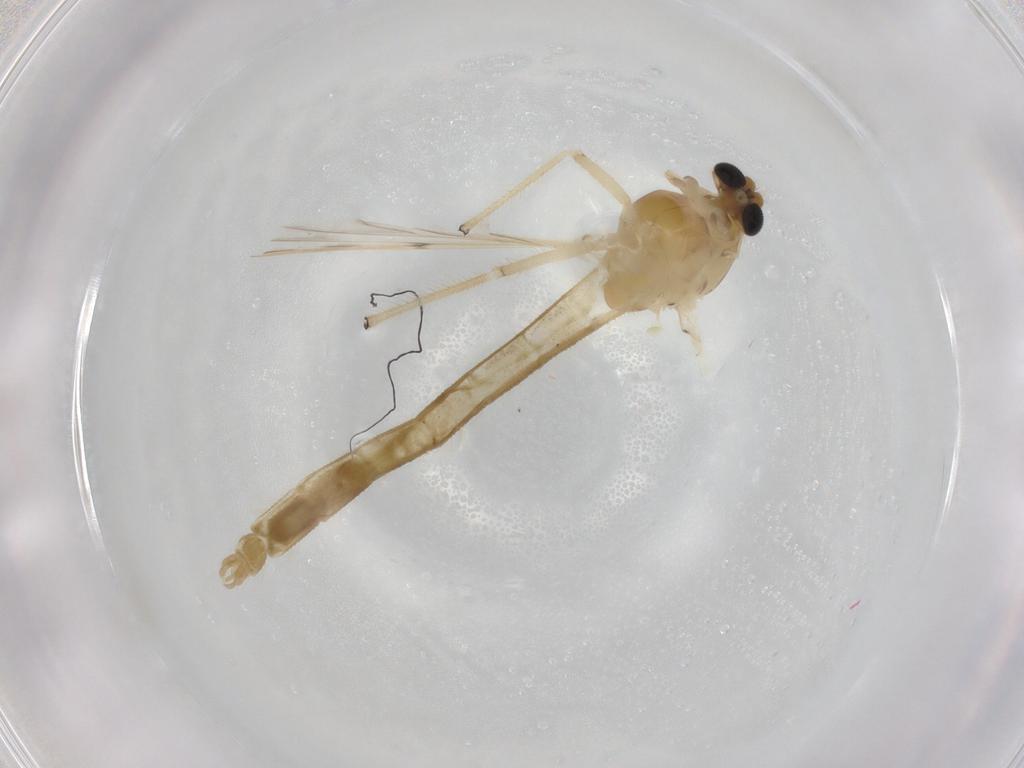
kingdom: Animalia
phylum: Arthropoda
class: Insecta
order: Diptera
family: Chironomidae
